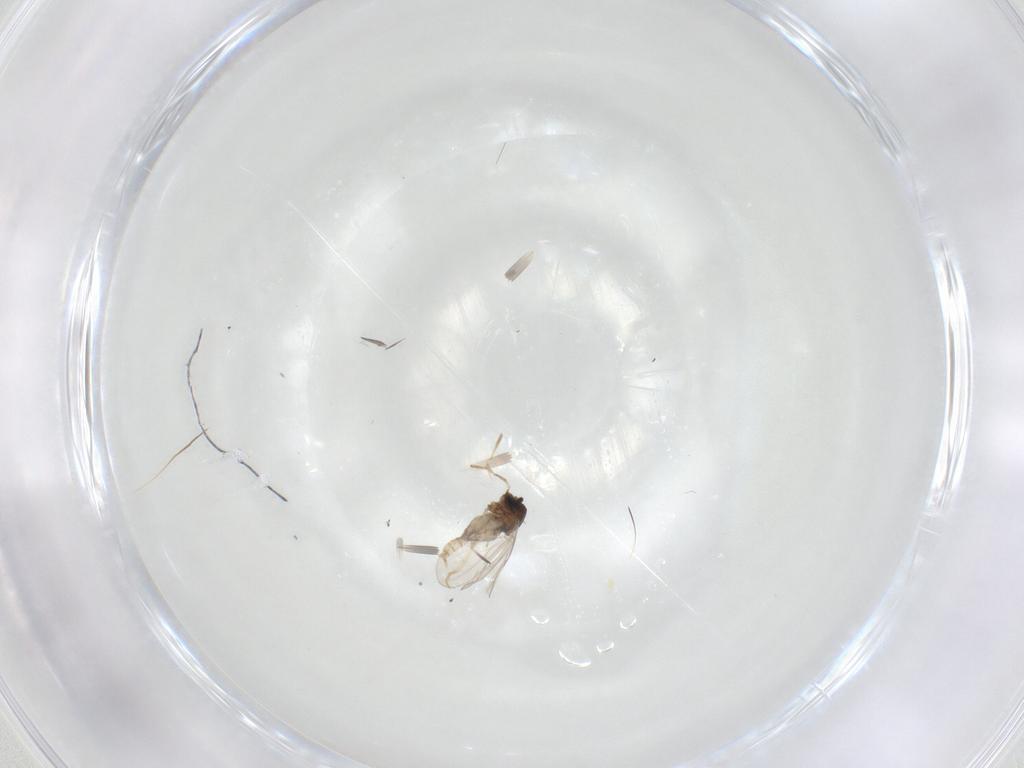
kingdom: Animalia
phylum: Arthropoda
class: Insecta
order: Diptera
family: Cecidomyiidae
